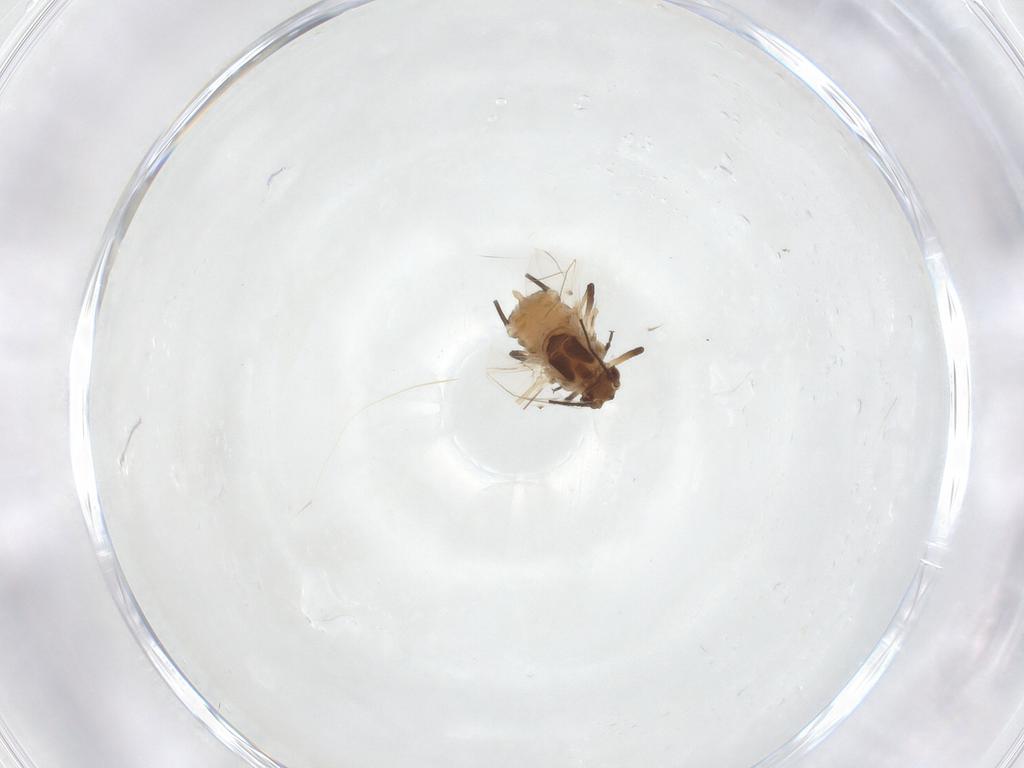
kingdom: Animalia
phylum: Arthropoda
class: Insecta
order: Hemiptera
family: Aphididae
